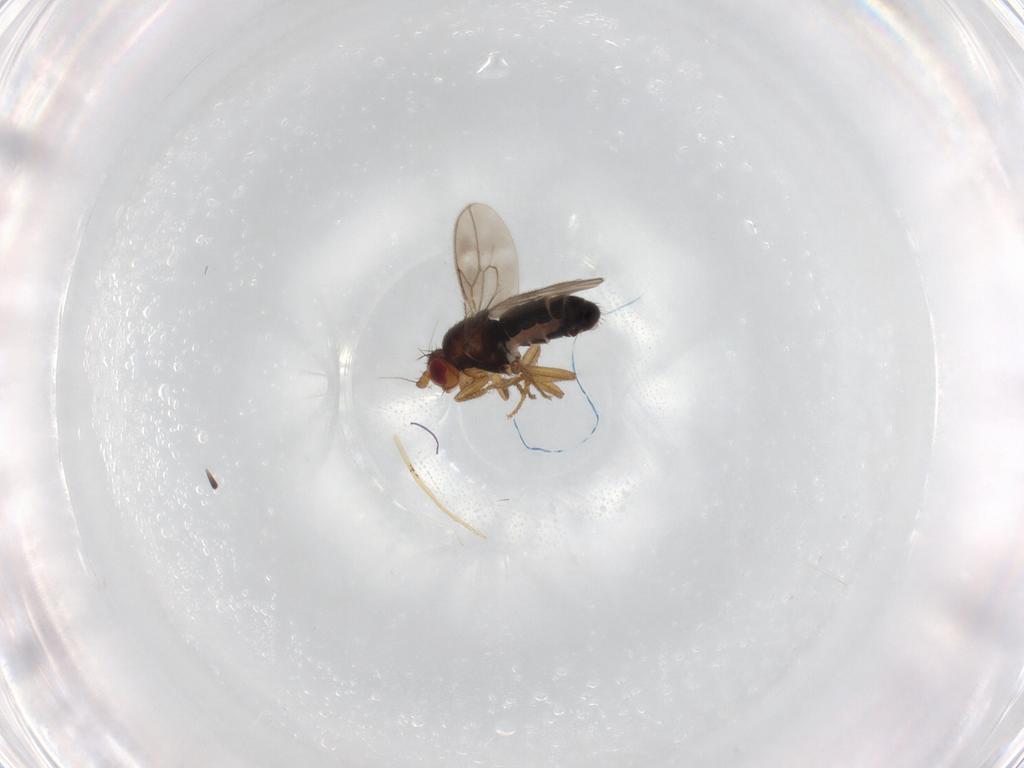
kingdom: Animalia
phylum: Arthropoda
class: Insecta
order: Diptera
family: Sphaeroceridae
